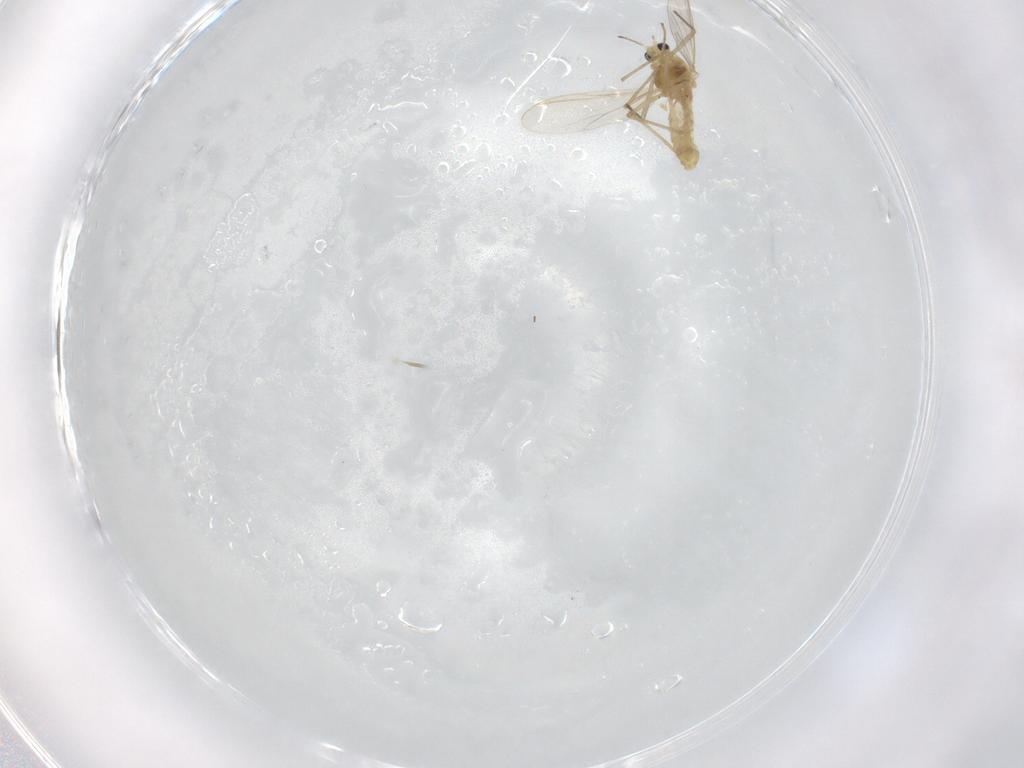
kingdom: Animalia
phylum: Arthropoda
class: Insecta
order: Diptera
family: Chironomidae
